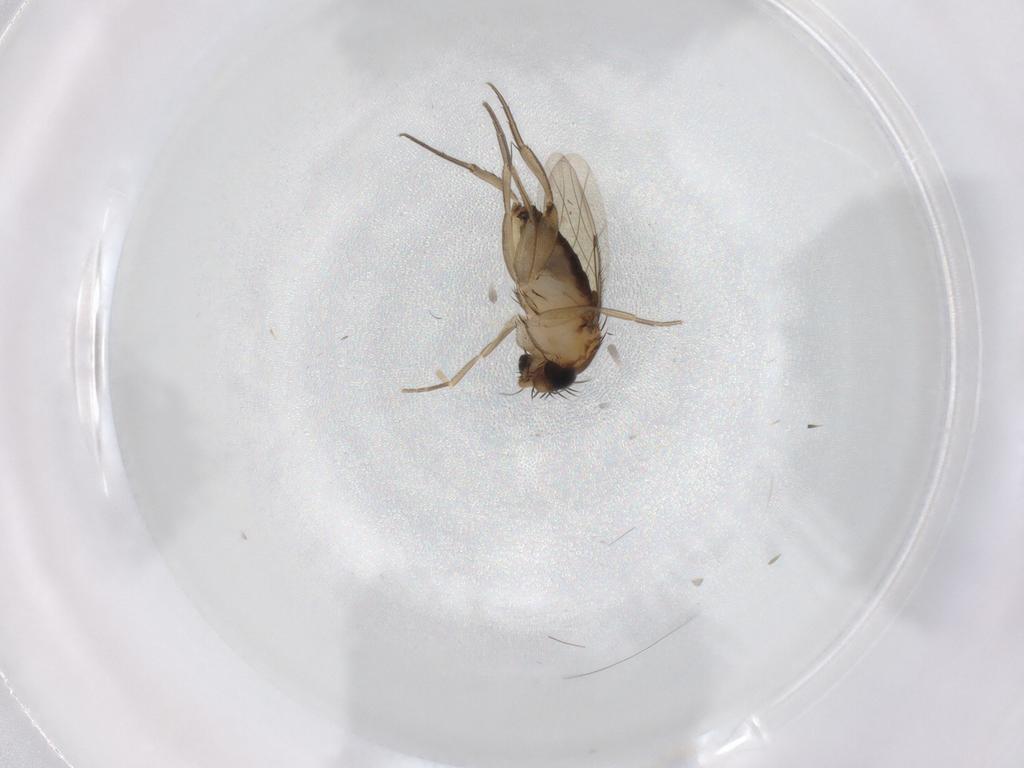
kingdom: Animalia
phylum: Arthropoda
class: Insecta
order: Diptera
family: Phoridae
